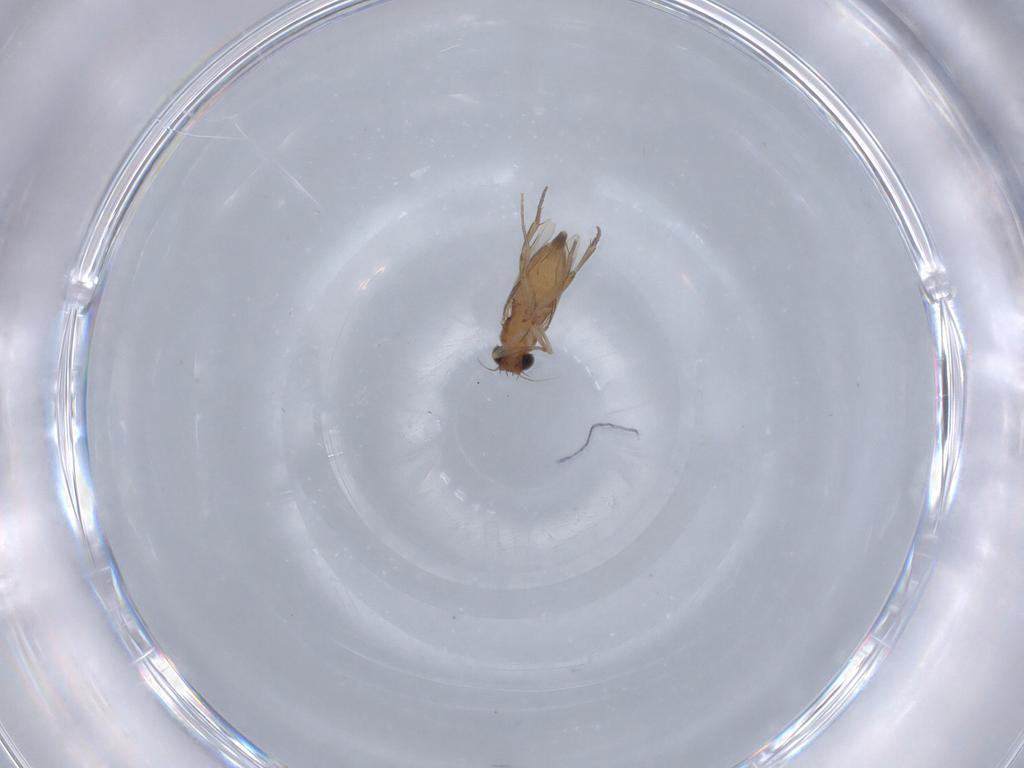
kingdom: Animalia
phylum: Arthropoda
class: Insecta
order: Diptera
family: Phoridae
